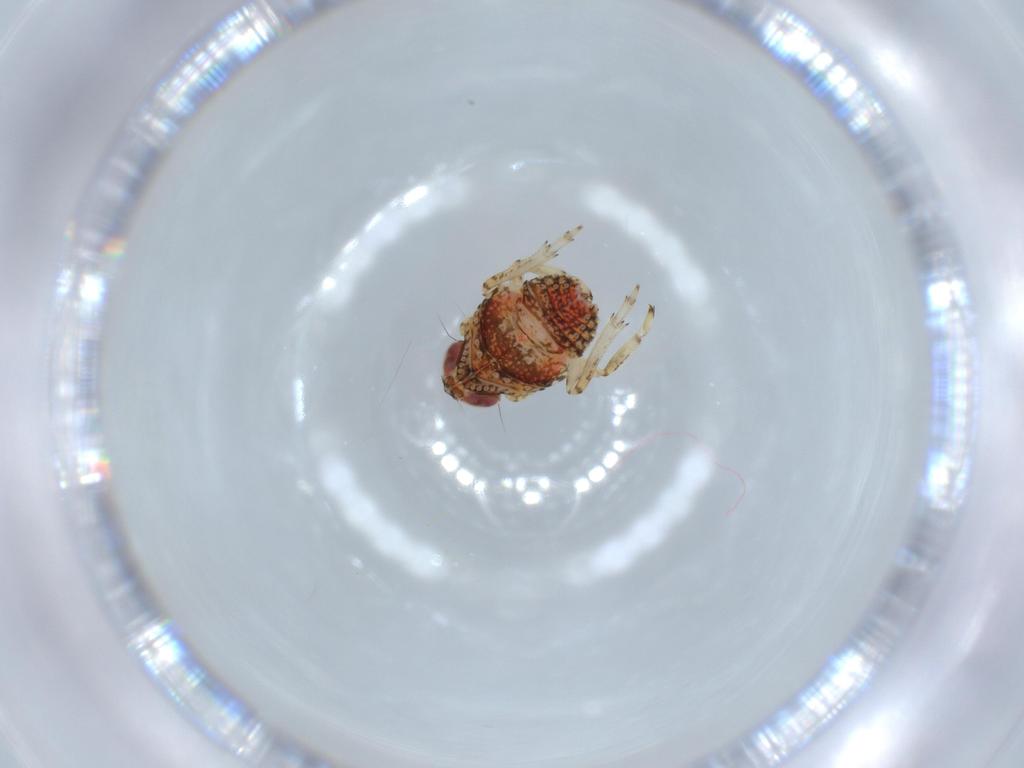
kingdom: Animalia
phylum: Arthropoda
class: Insecta
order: Hemiptera
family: Issidae
